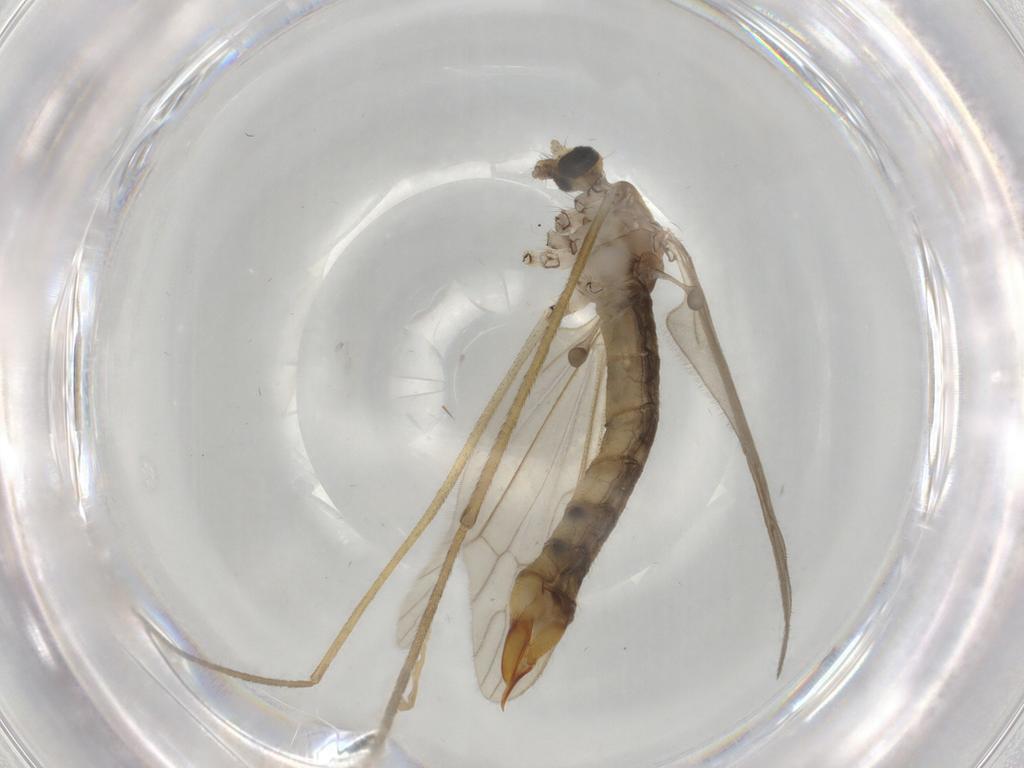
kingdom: Animalia
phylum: Arthropoda
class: Insecta
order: Diptera
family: Limoniidae
